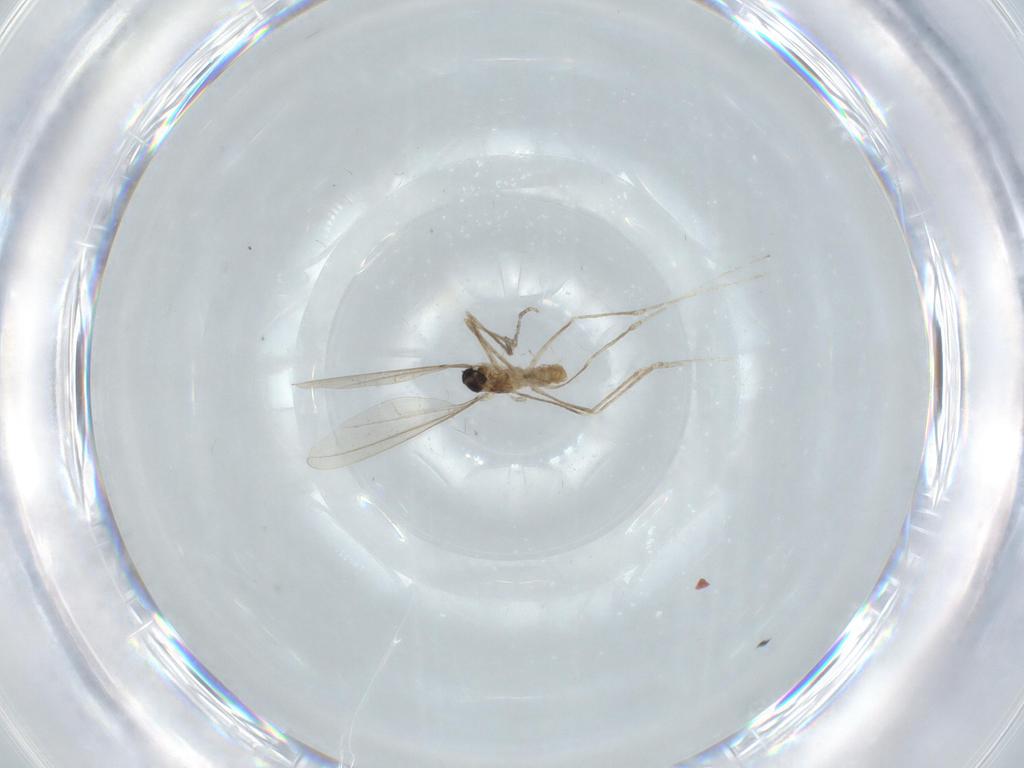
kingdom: Animalia
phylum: Arthropoda
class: Insecta
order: Diptera
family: Cecidomyiidae
